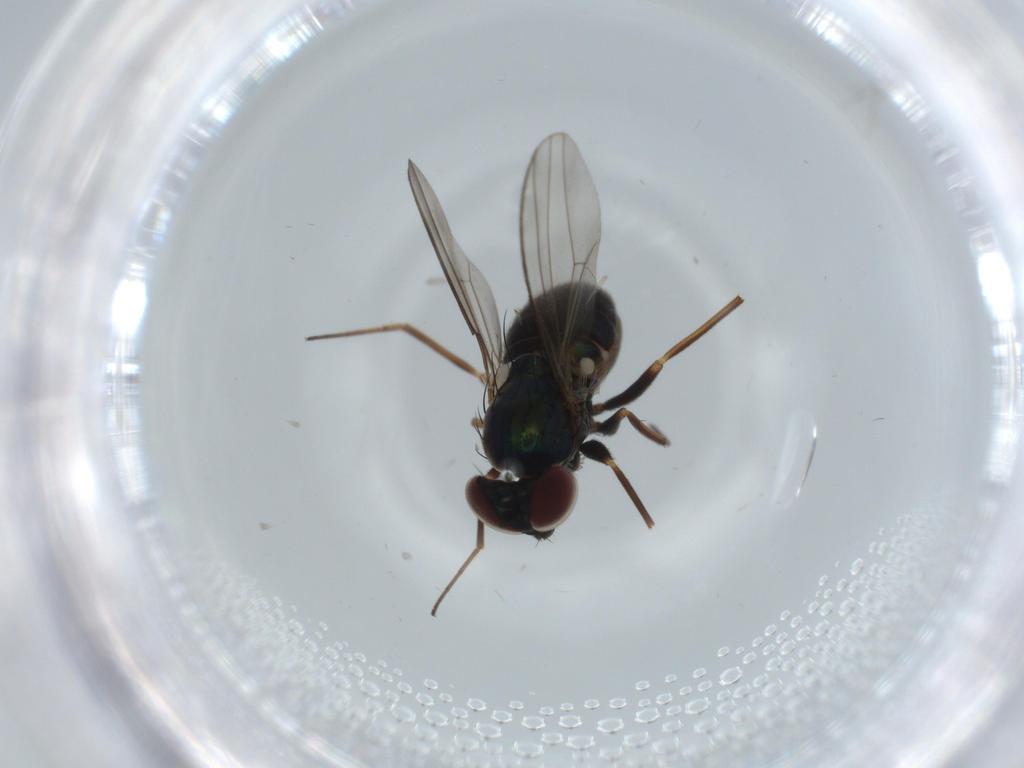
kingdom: Animalia
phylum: Arthropoda
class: Insecta
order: Diptera
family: Dolichopodidae
